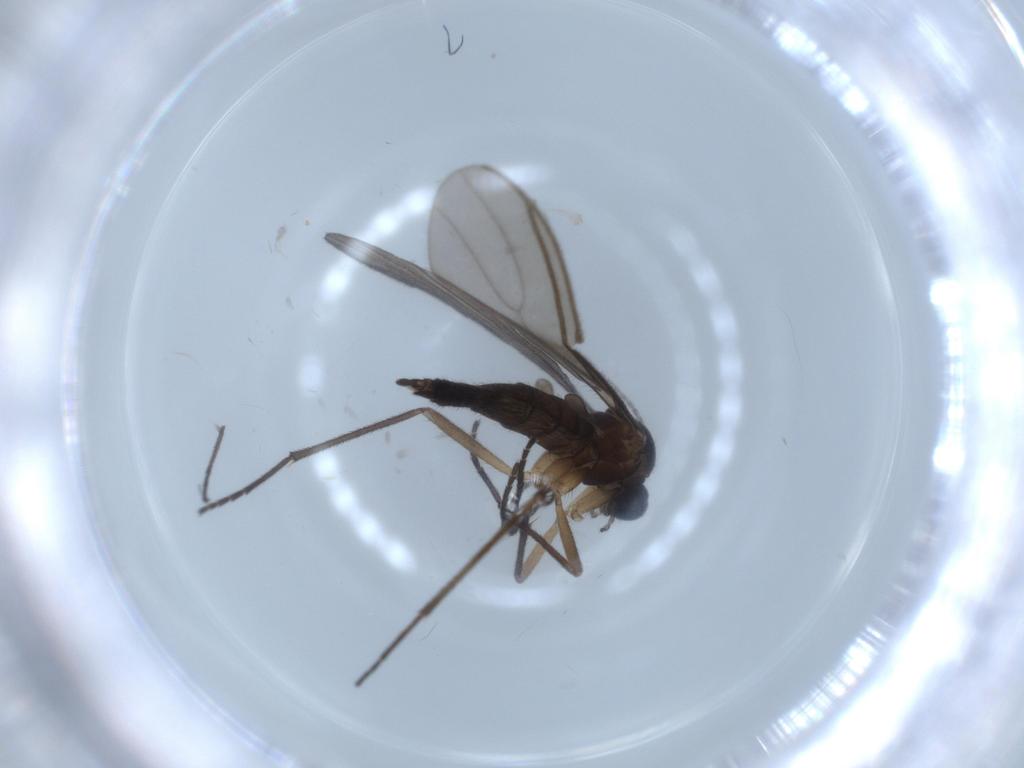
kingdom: Animalia
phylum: Arthropoda
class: Insecta
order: Diptera
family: Sciaridae
